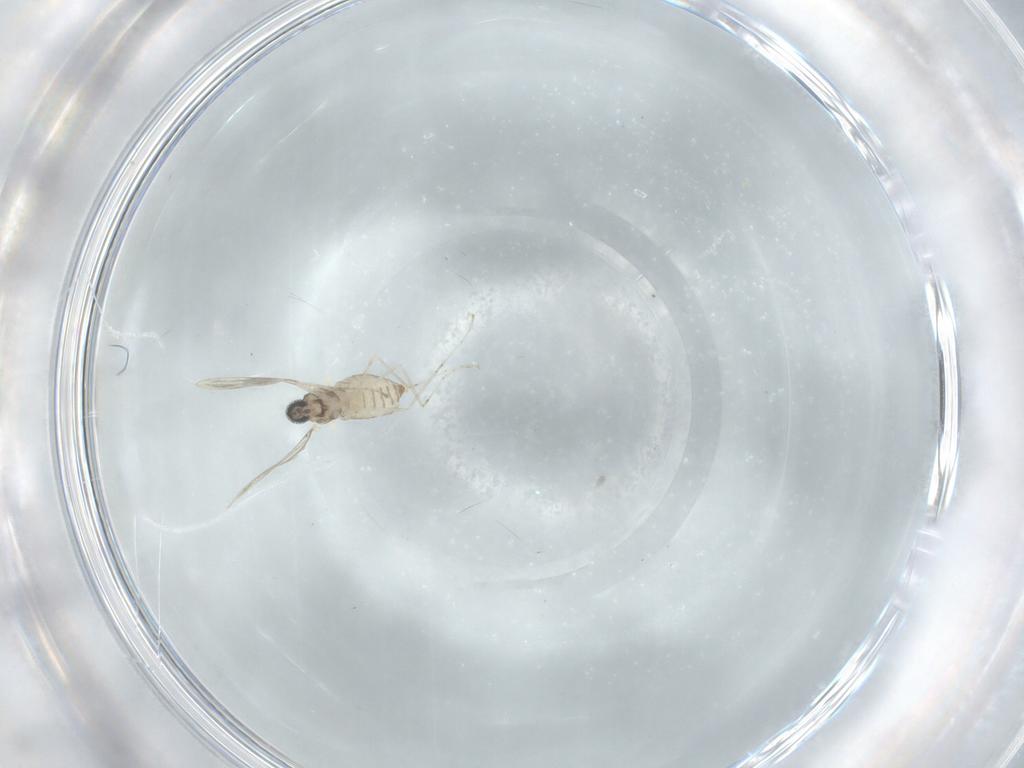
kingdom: Animalia
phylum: Arthropoda
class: Insecta
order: Diptera
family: Cecidomyiidae
